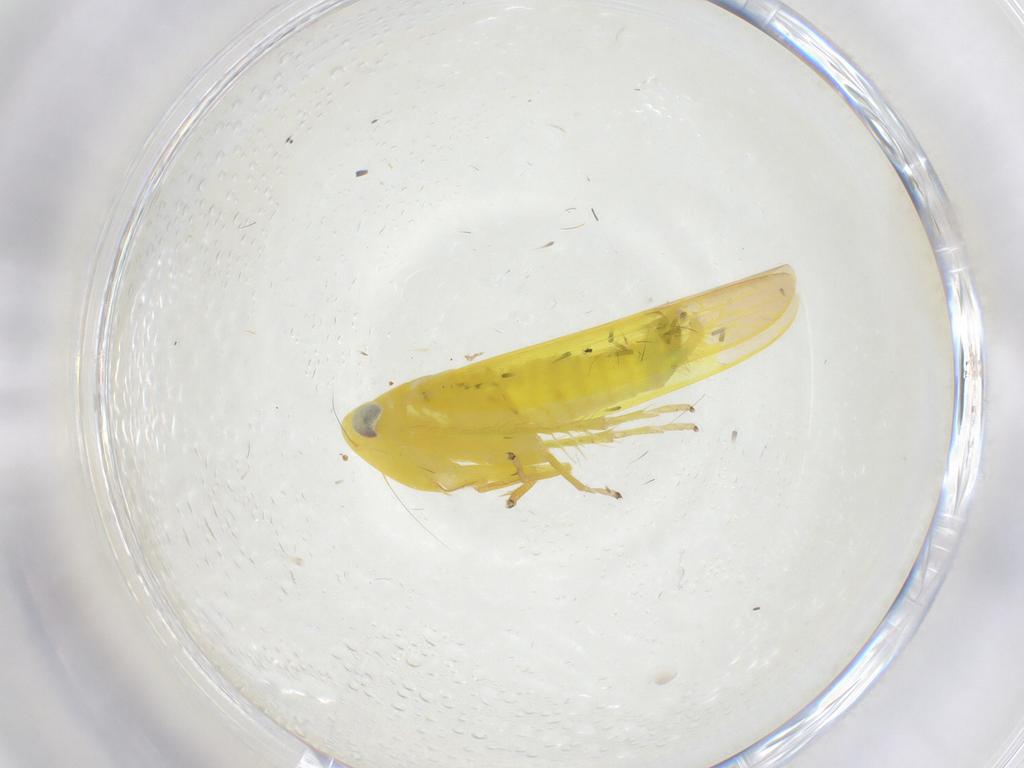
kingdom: Animalia
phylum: Arthropoda
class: Insecta
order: Hemiptera
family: Cicadellidae
